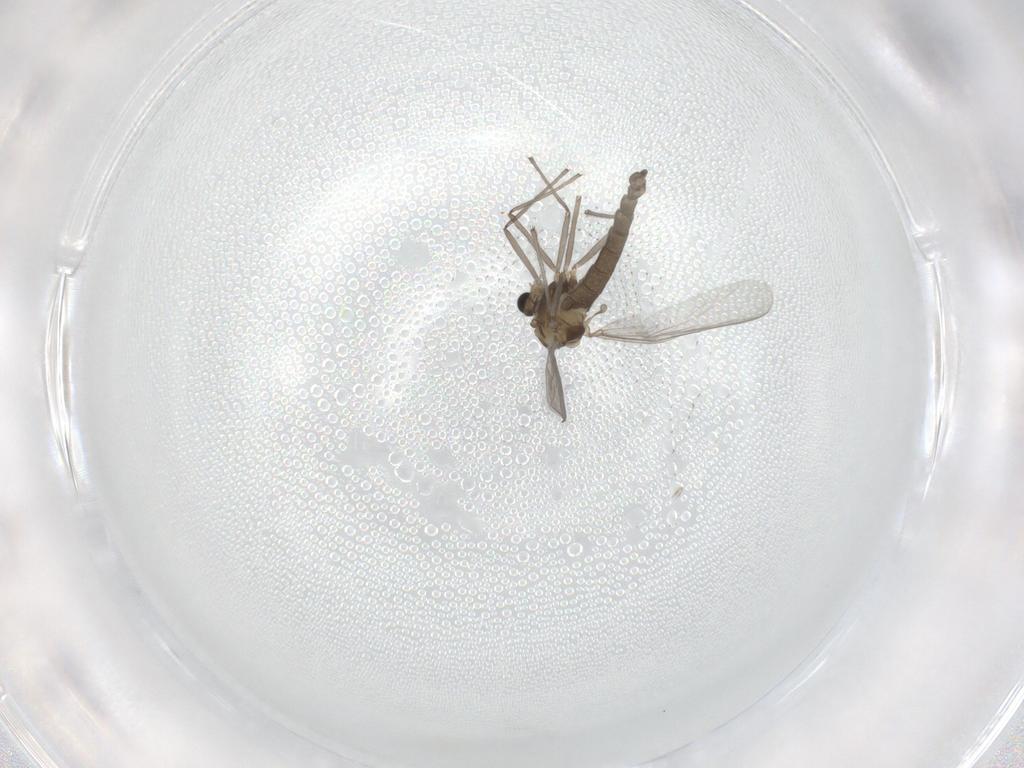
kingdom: Animalia
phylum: Arthropoda
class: Insecta
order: Diptera
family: Chironomidae
